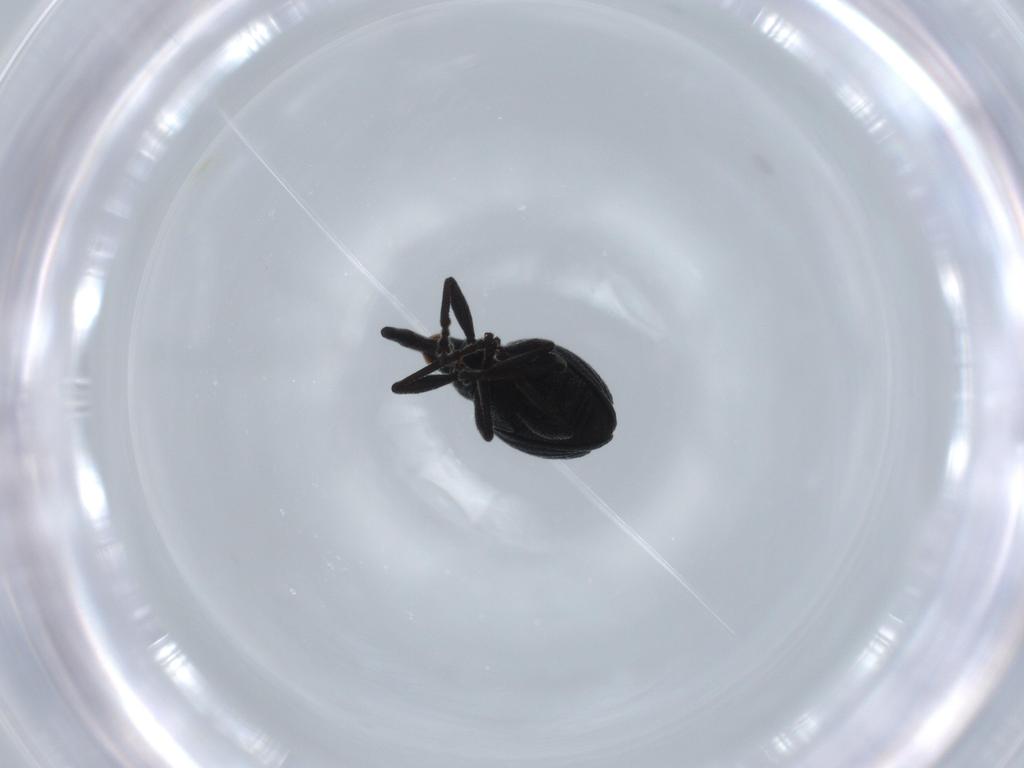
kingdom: Animalia
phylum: Arthropoda
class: Insecta
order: Coleoptera
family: Brentidae
